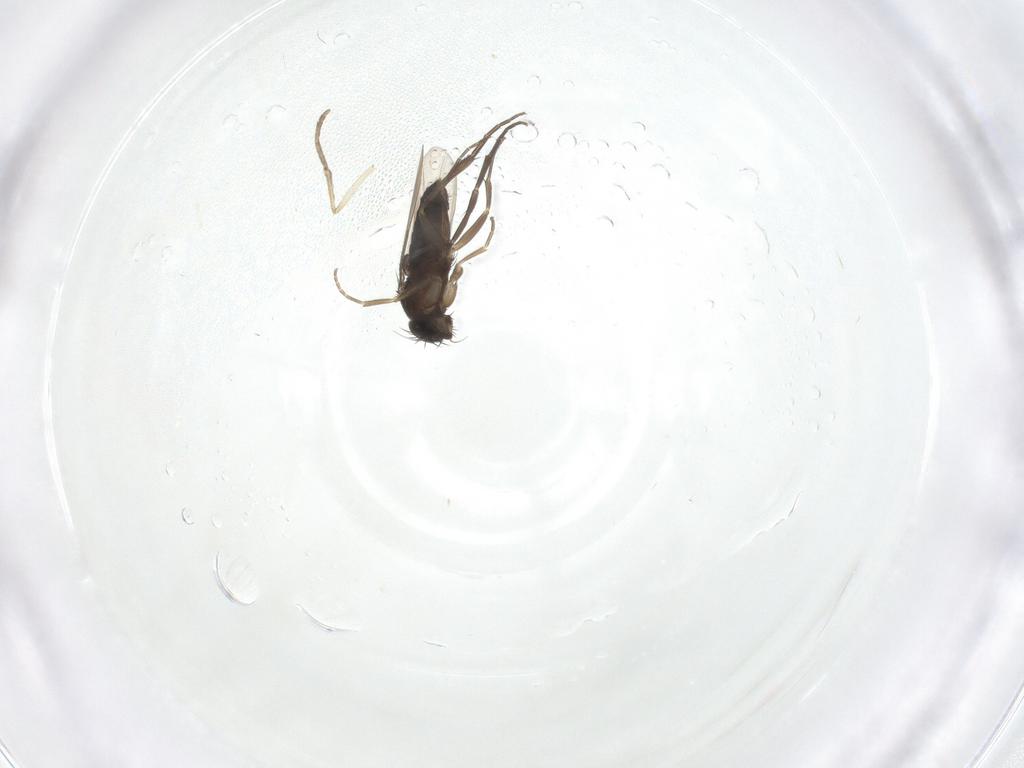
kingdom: Animalia
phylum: Arthropoda
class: Insecta
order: Diptera
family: Phoridae
